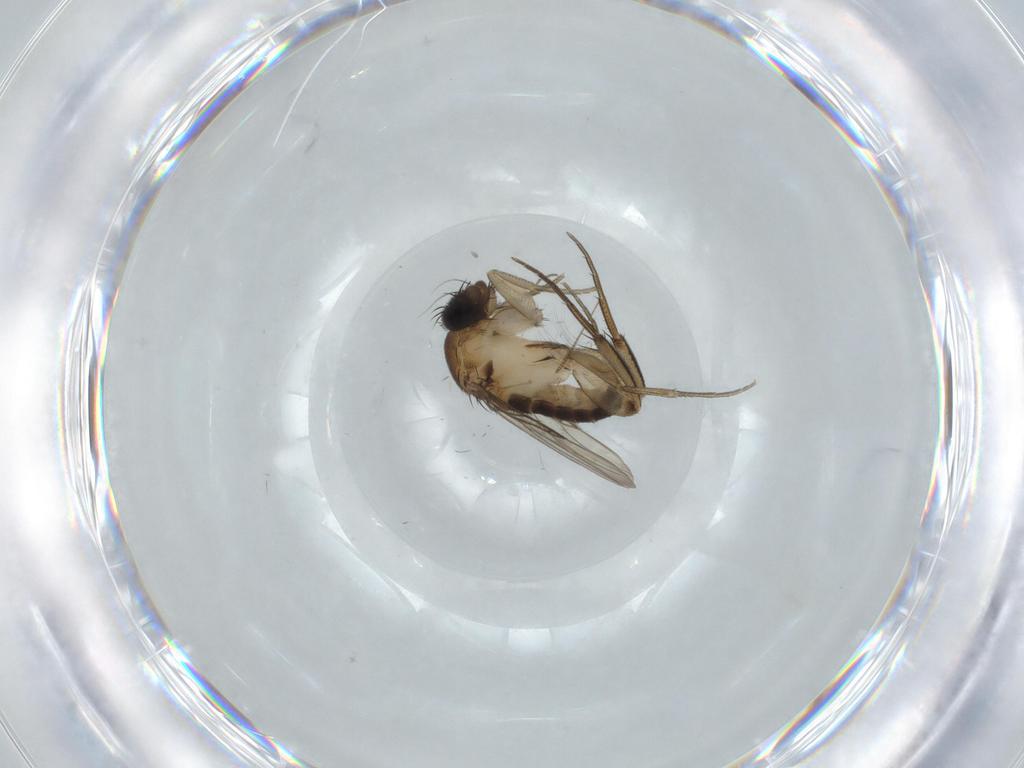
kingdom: Animalia
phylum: Arthropoda
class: Insecta
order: Diptera
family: Phoridae
